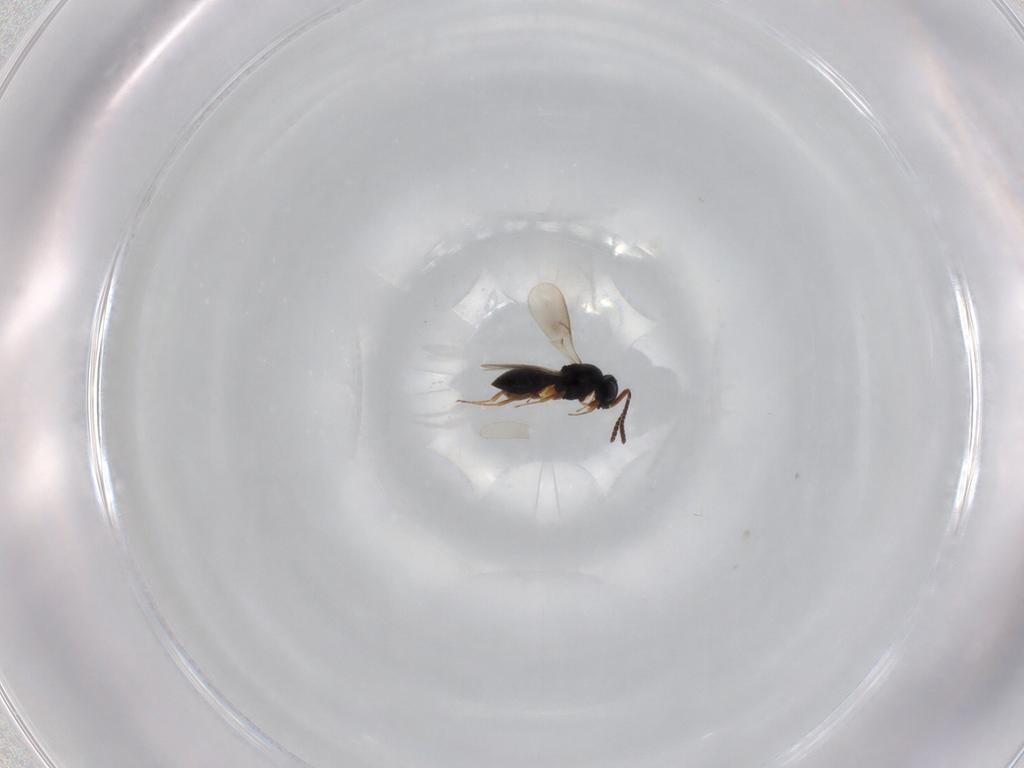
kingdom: Animalia
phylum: Arthropoda
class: Insecta
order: Hymenoptera
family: Scelionidae
